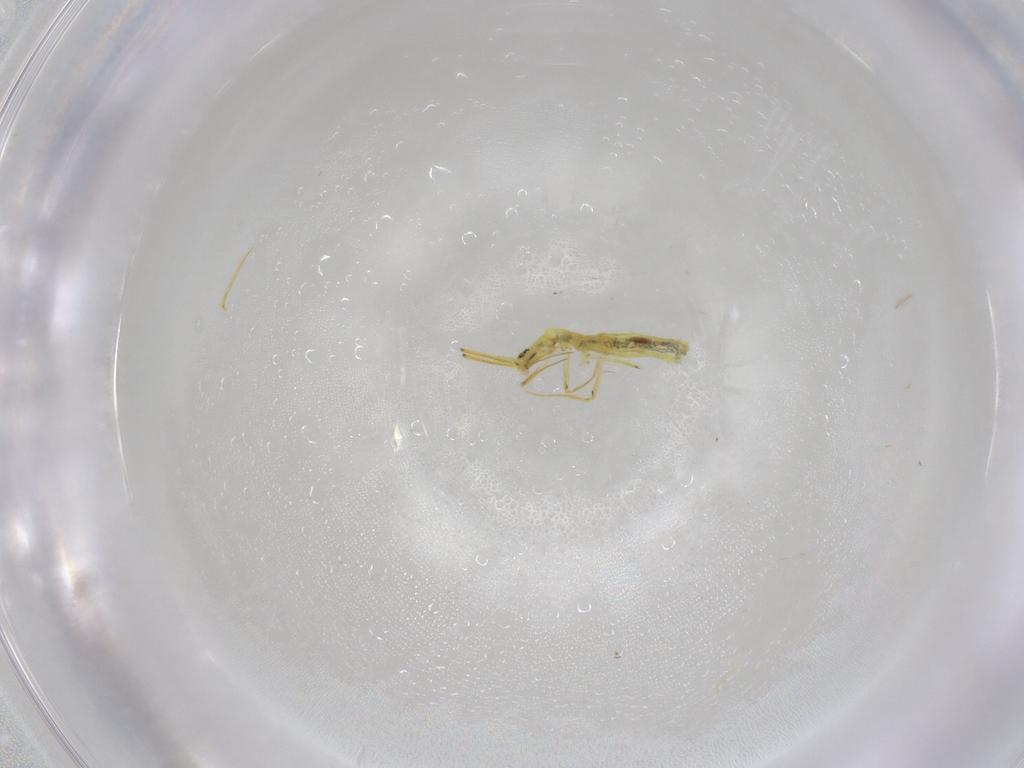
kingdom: Animalia
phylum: Arthropoda
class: Collembola
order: Entomobryomorpha
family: Entomobryidae
